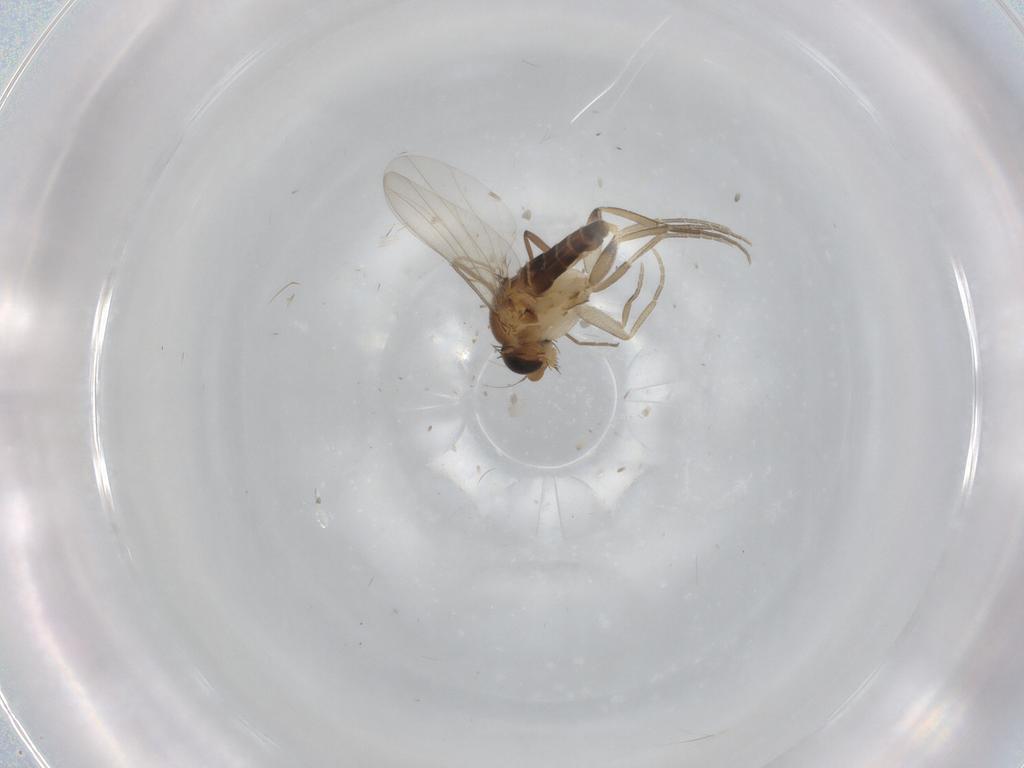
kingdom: Animalia
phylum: Arthropoda
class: Insecta
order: Diptera
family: Phoridae
